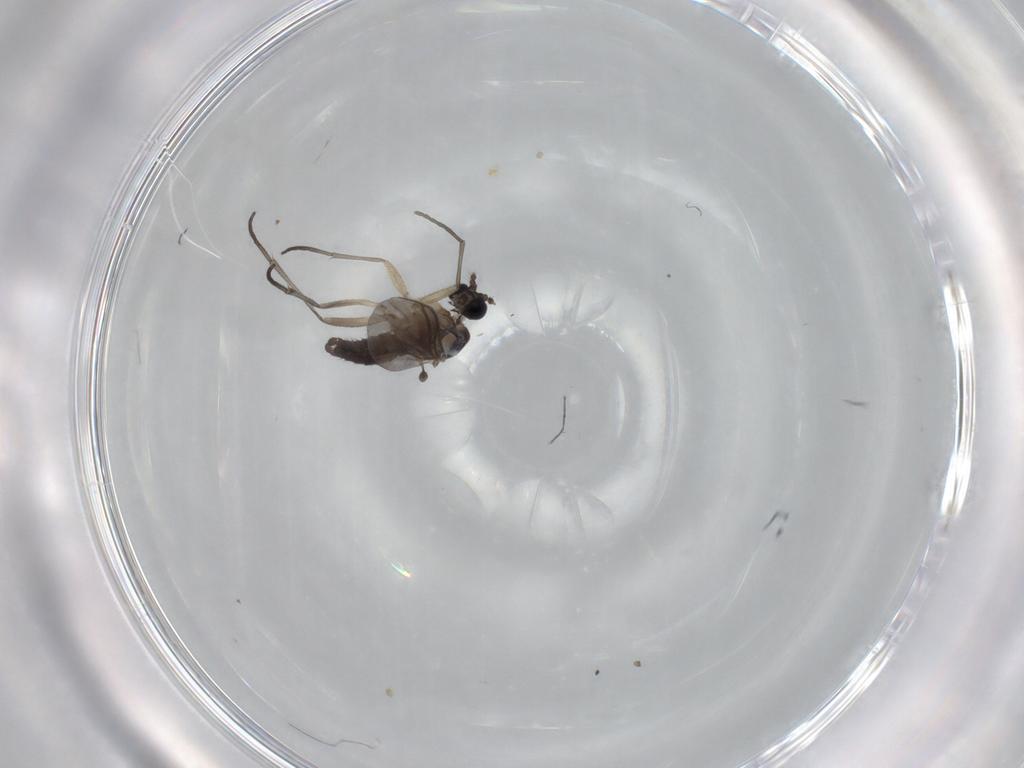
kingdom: Animalia
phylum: Arthropoda
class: Insecta
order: Diptera
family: Sciaridae
